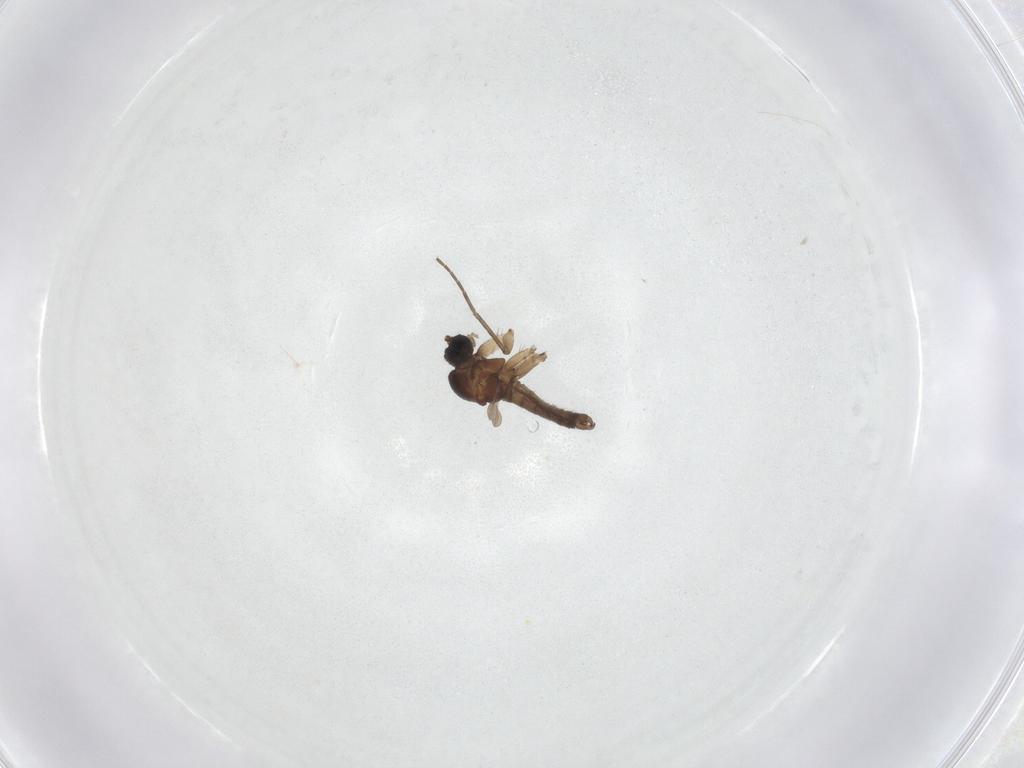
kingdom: Animalia
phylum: Arthropoda
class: Insecta
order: Diptera
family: Sciaridae
